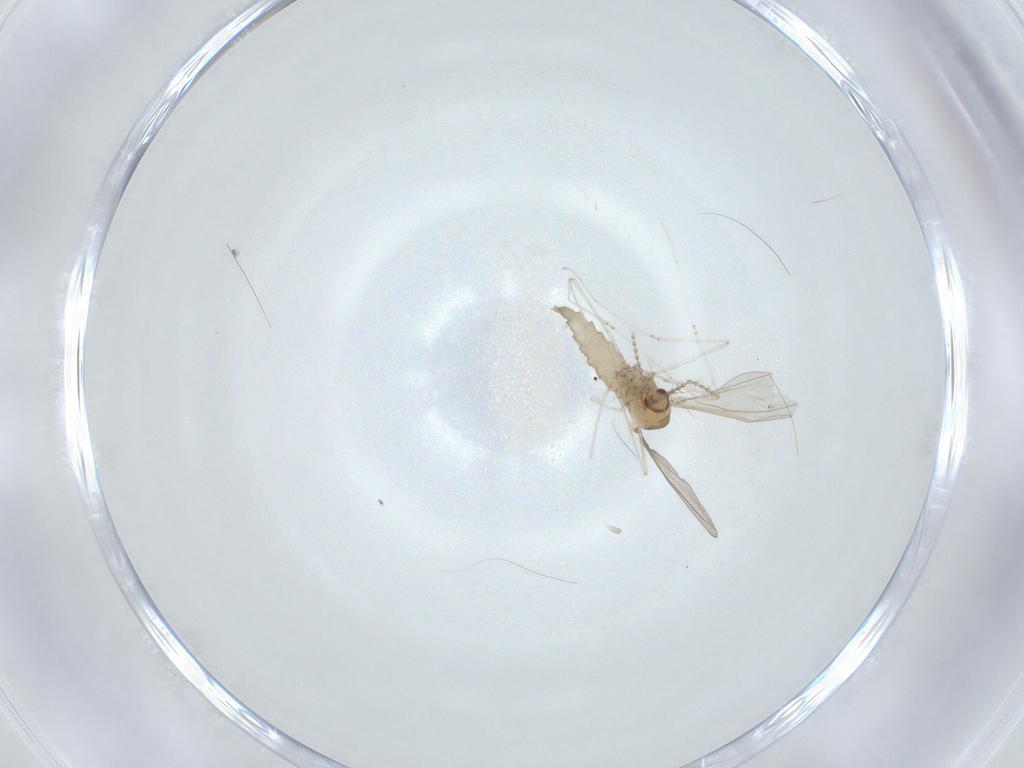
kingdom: Animalia
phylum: Arthropoda
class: Insecta
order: Diptera
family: Cecidomyiidae
